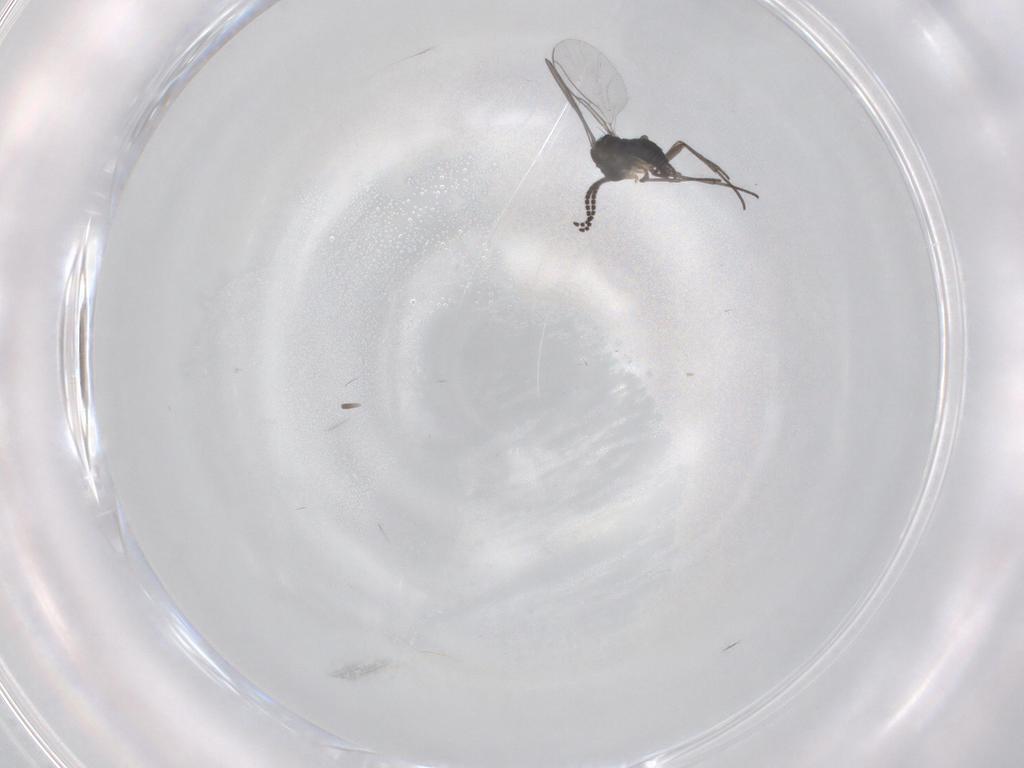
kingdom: Animalia
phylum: Arthropoda
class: Insecta
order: Diptera
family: Sciaridae
